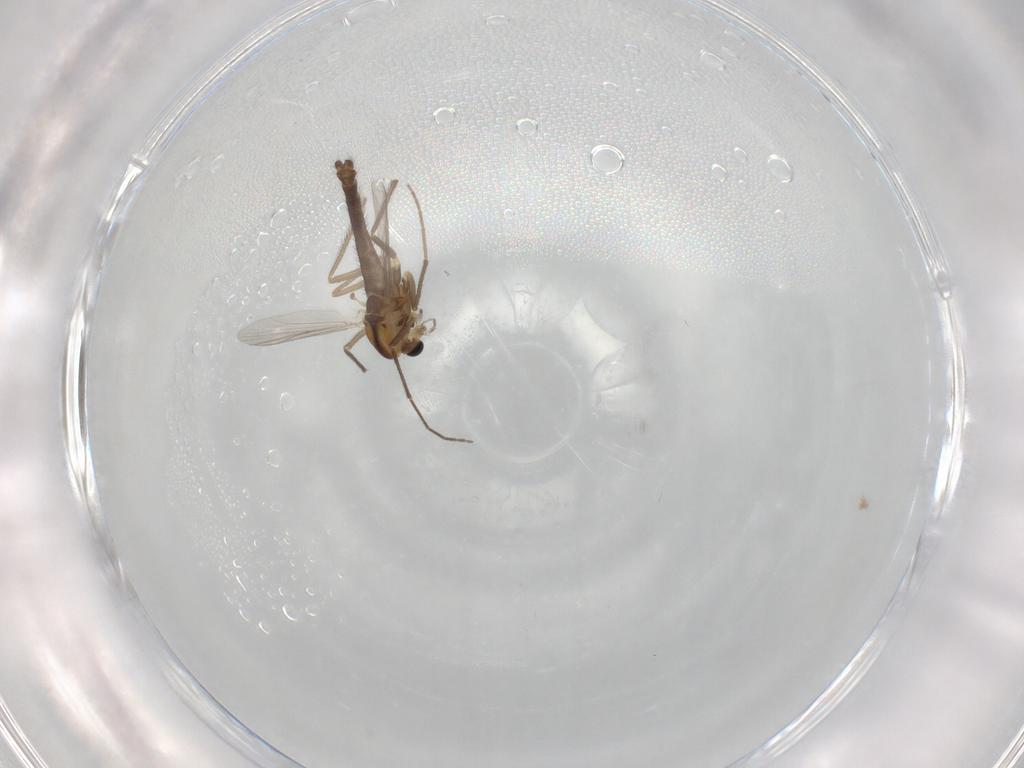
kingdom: Animalia
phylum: Arthropoda
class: Insecta
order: Diptera
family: Chironomidae
